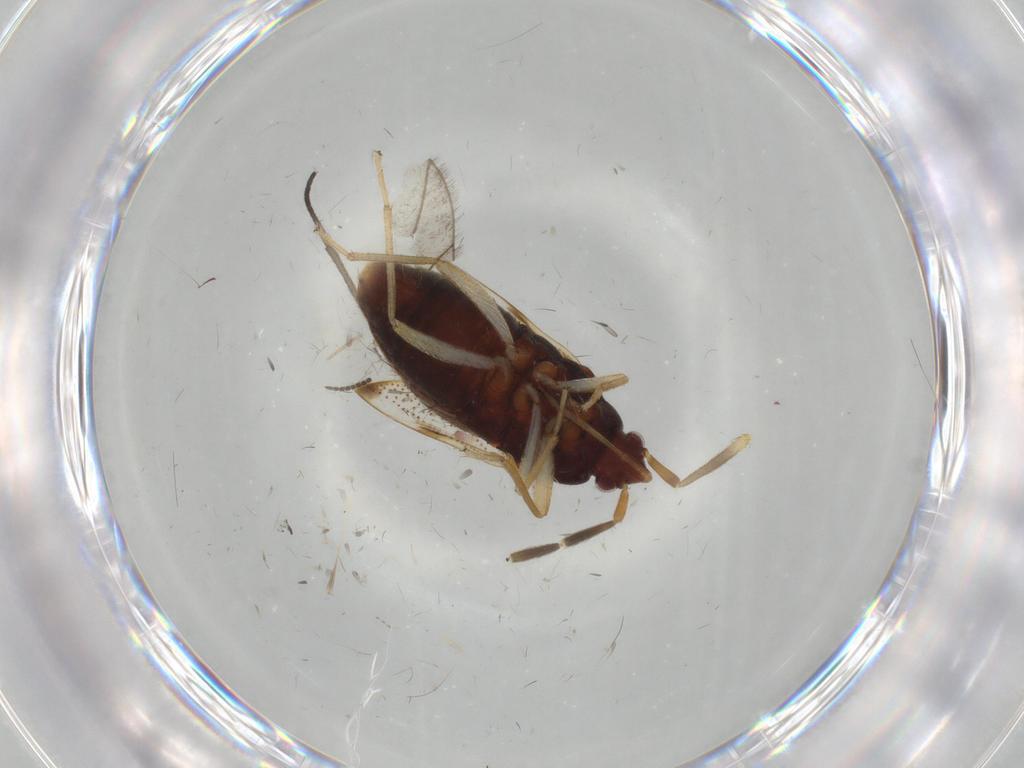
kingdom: Animalia
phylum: Arthropoda
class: Insecta
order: Hemiptera
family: Rhyparochromidae
